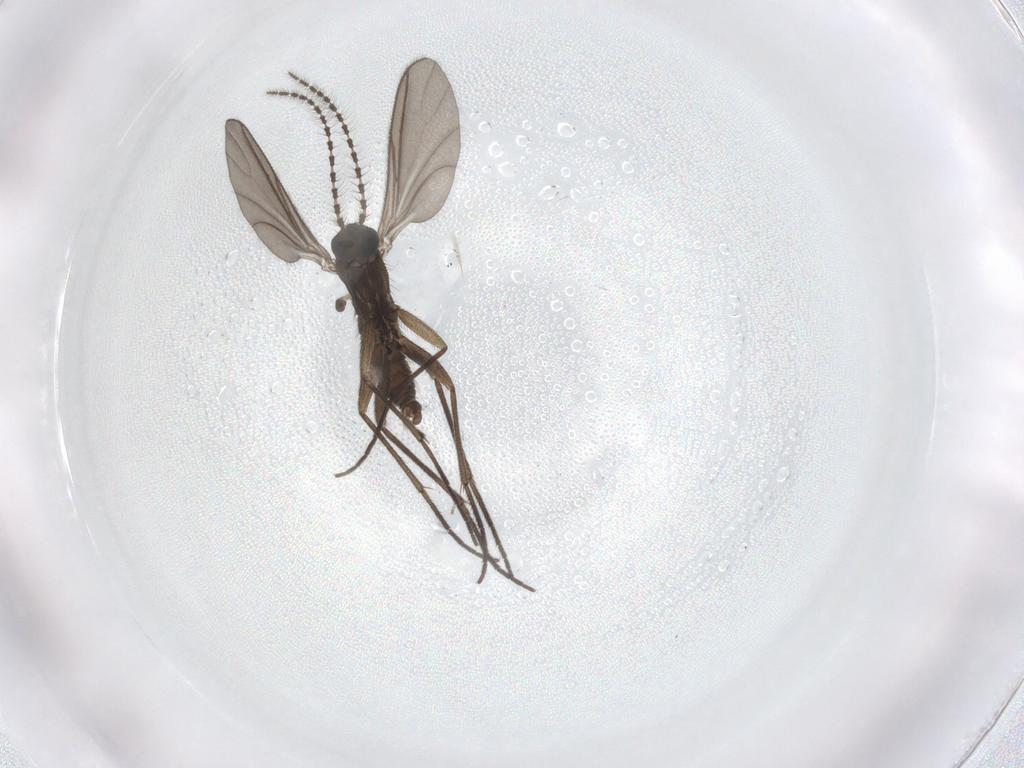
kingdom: Animalia
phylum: Arthropoda
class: Insecta
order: Diptera
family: Sciaridae
